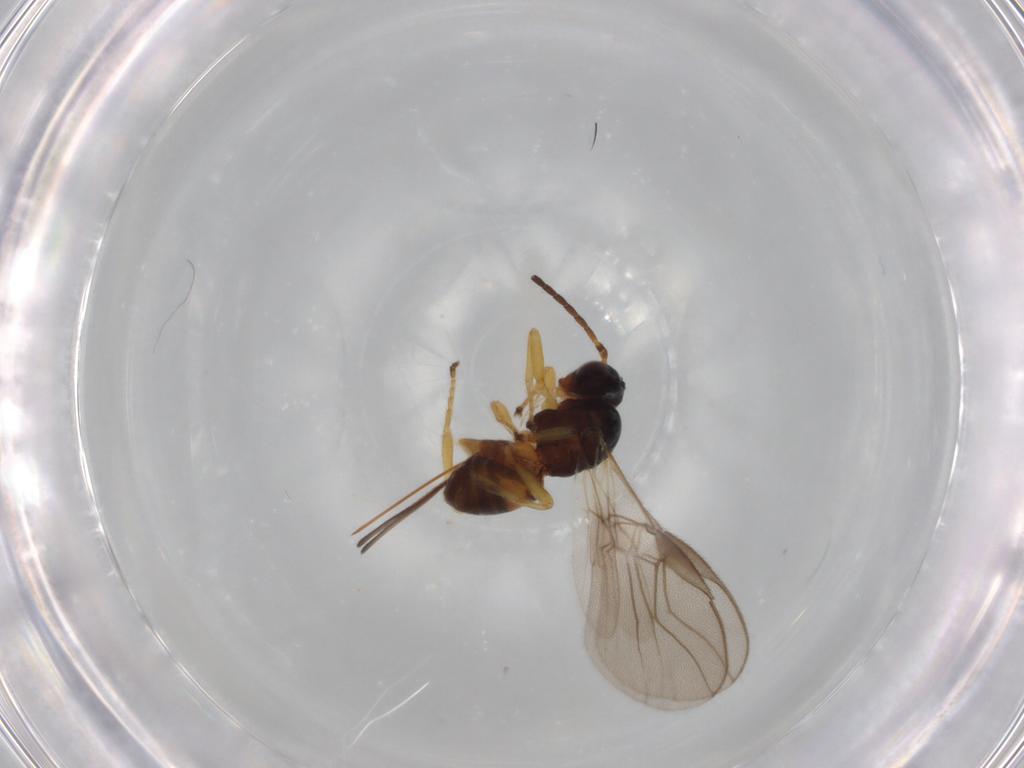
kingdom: Animalia
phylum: Arthropoda
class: Insecta
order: Hymenoptera
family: Braconidae
